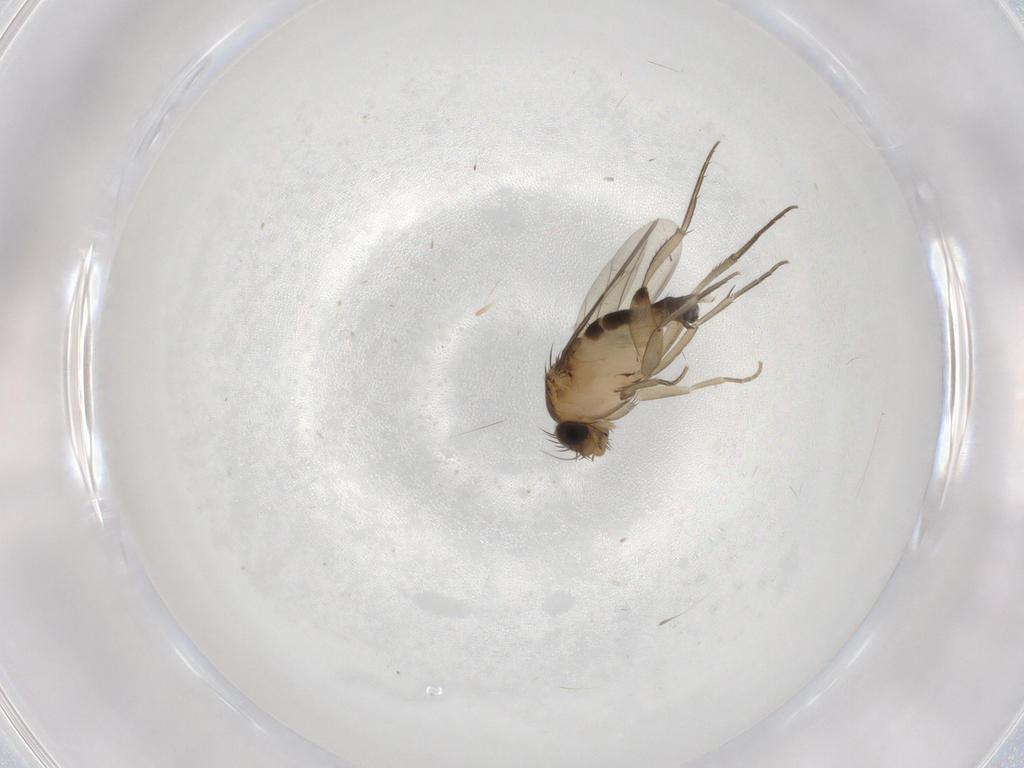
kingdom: Animalia
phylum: Arthropoda
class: Insecta
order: Diptera
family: Phoridae
